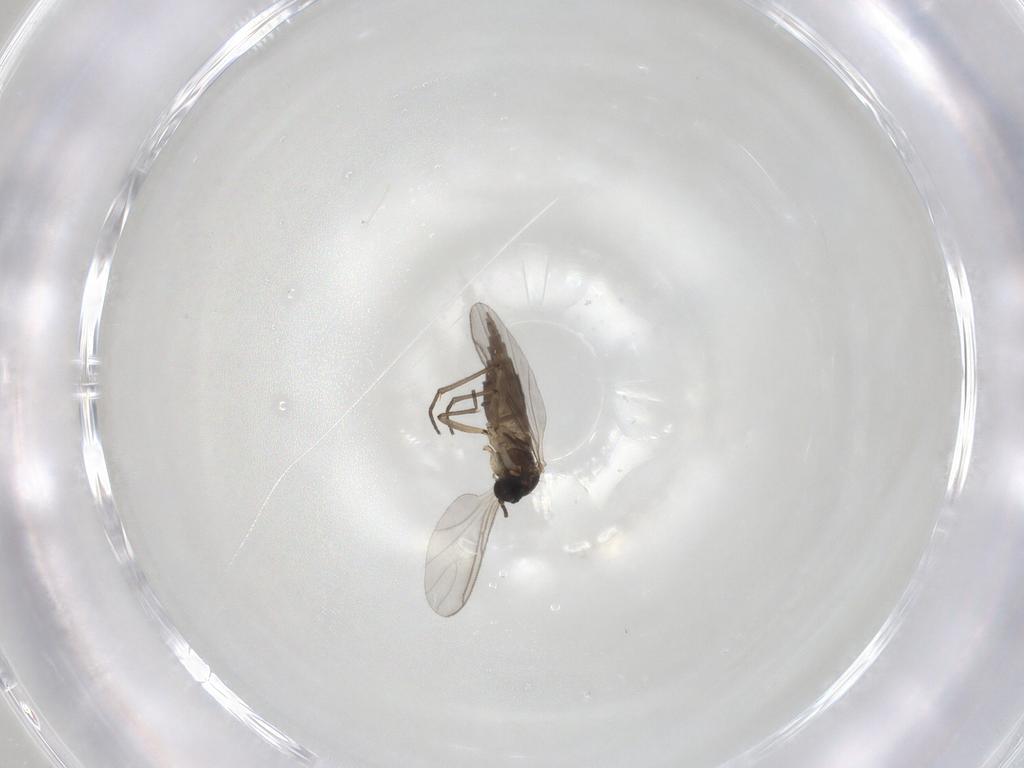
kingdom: Animalia
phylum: Arthropoda
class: Insecta
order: Diptera
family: Sciaridae
